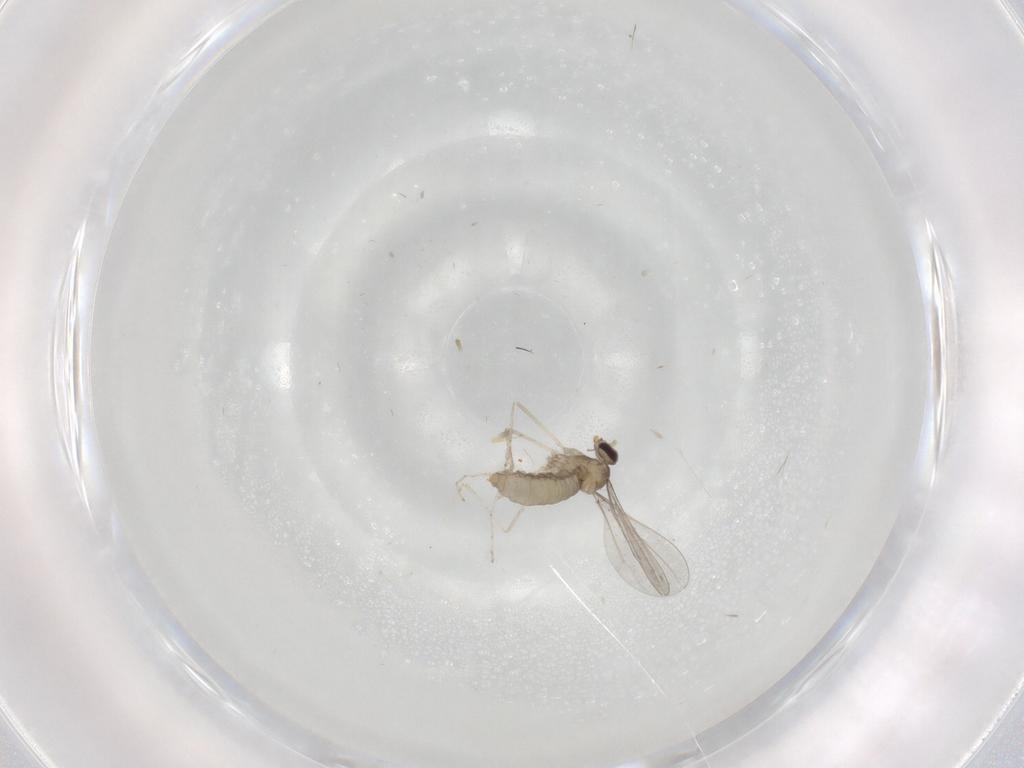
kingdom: Animalia
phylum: Arthropoda
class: Insecta
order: Diptera
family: Cecidomyiidae
